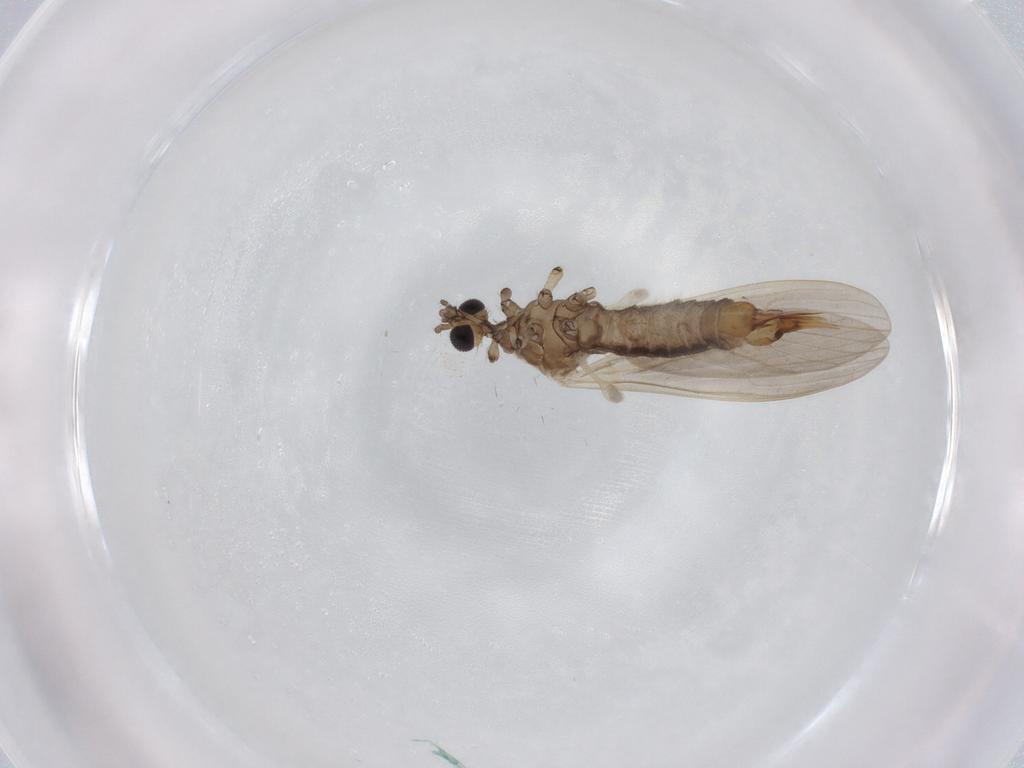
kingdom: Animalia
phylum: Arthropoda
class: Insecta
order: Diptera
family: Chironomidae
